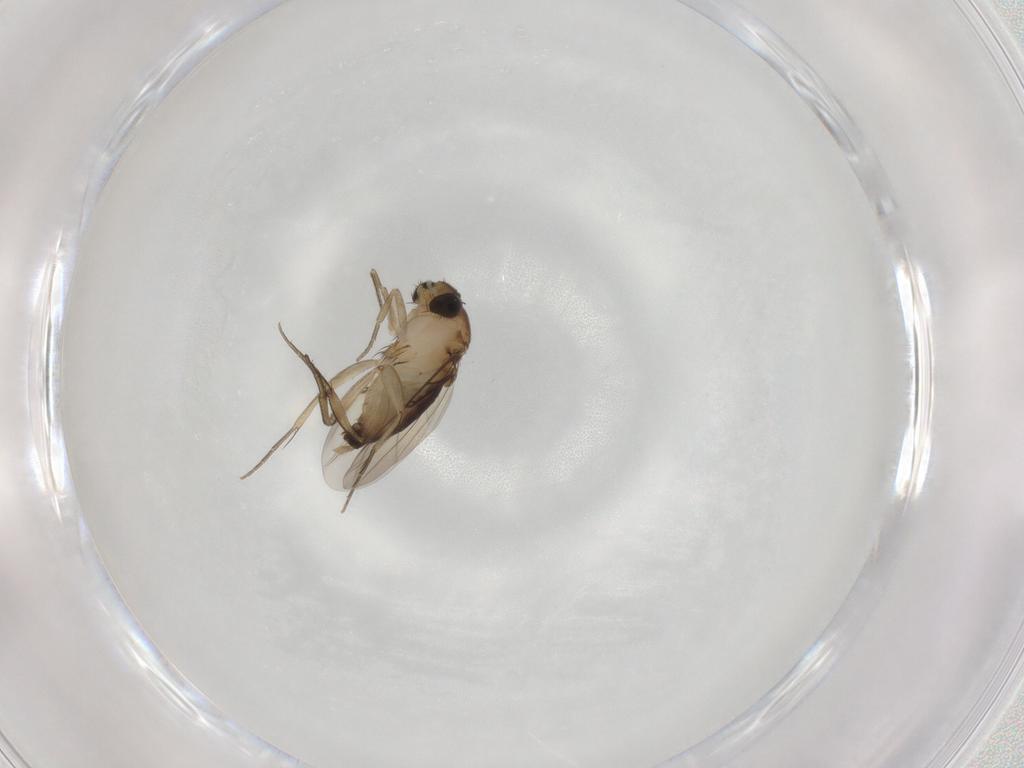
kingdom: Animalia
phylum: Arthropoda
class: Insecta
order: Diptera
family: Phoridae
